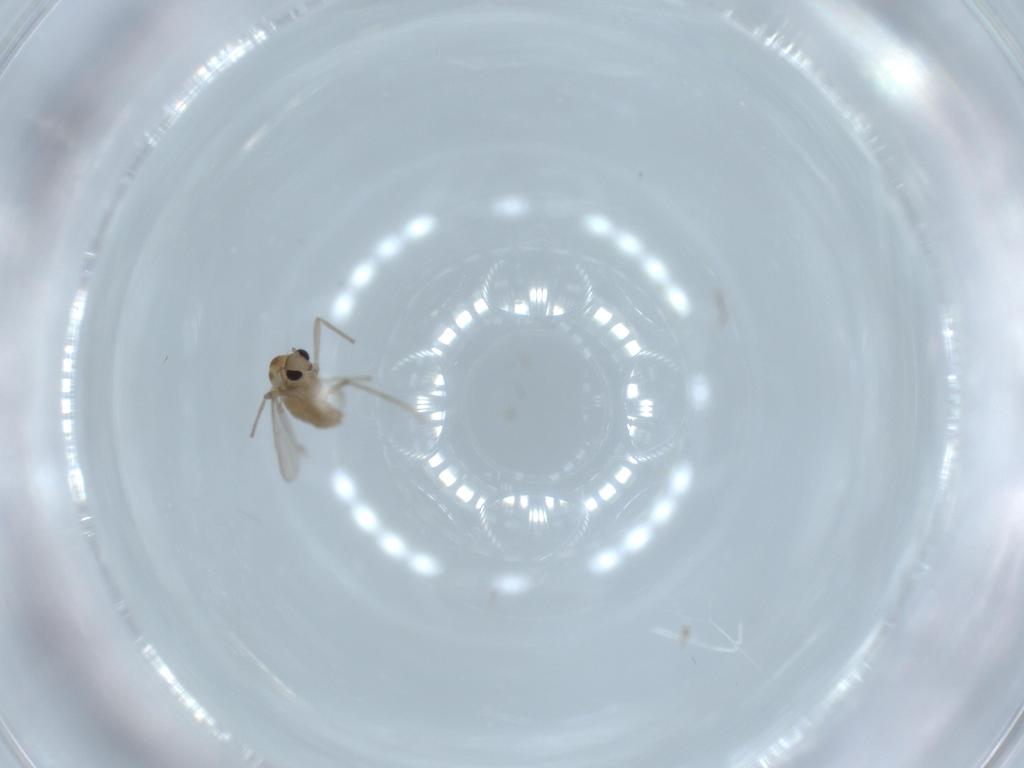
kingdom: Animalia
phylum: Arthropoda
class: Insecta
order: Diptera
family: Chironomidae
